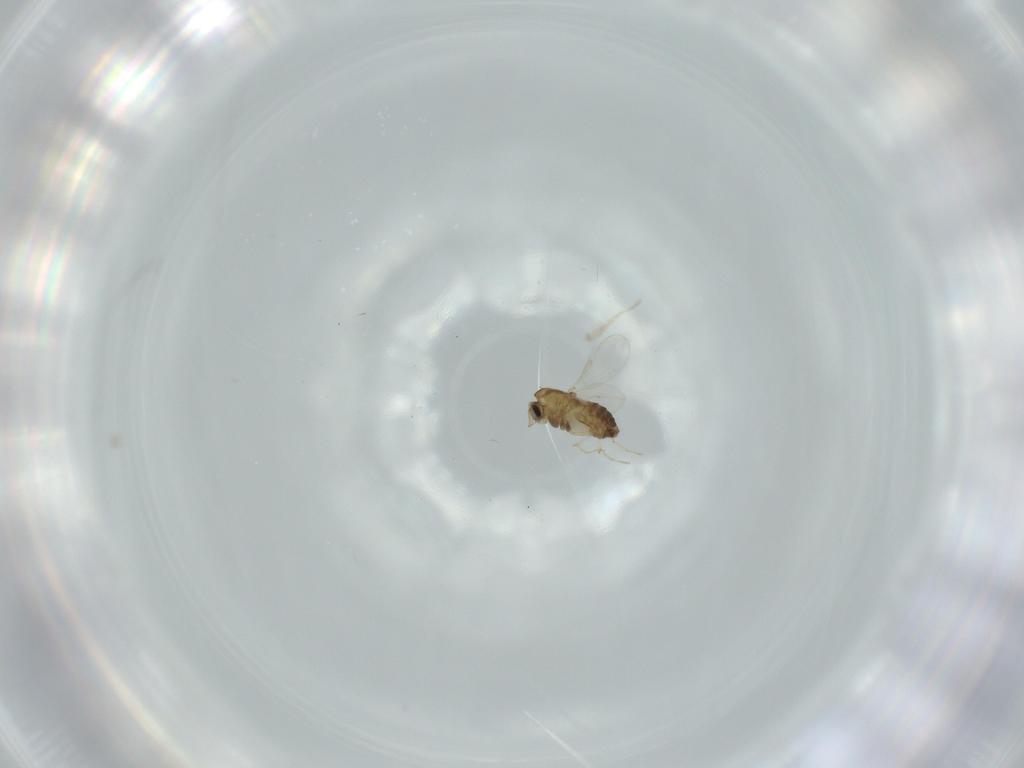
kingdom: Animalia
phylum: Arthropoda
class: Insecta
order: Diptera
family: Chironomidae
